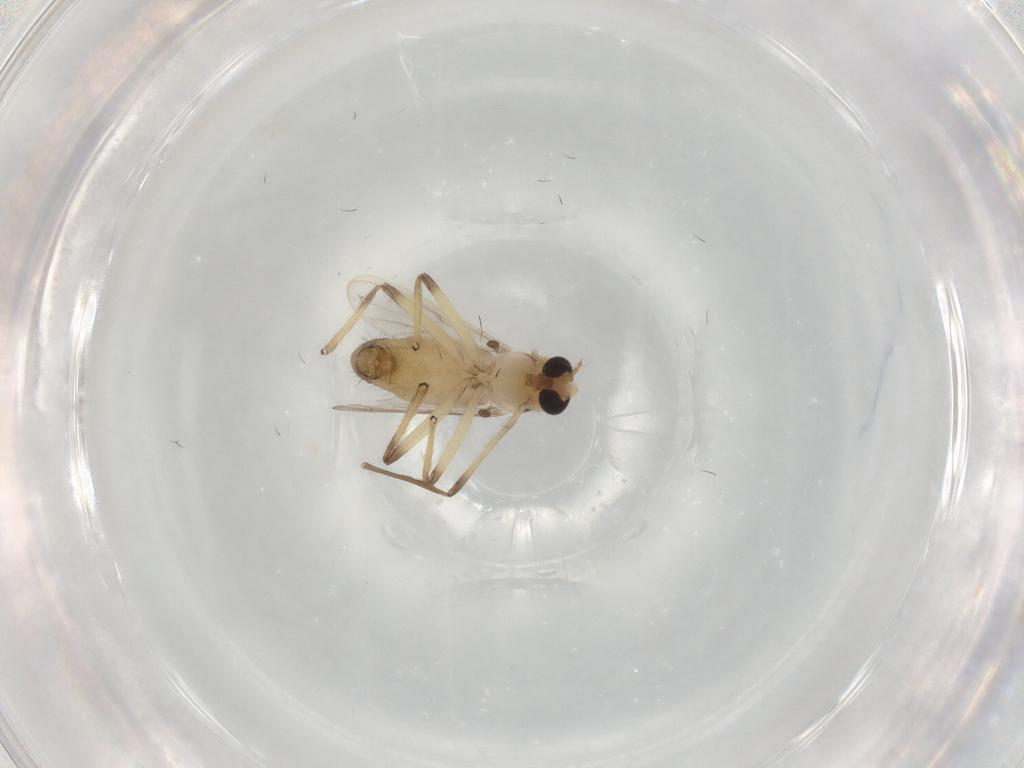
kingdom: Animalia
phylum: Arthropoda
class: Insecta
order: Diptera
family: Chironomidae
